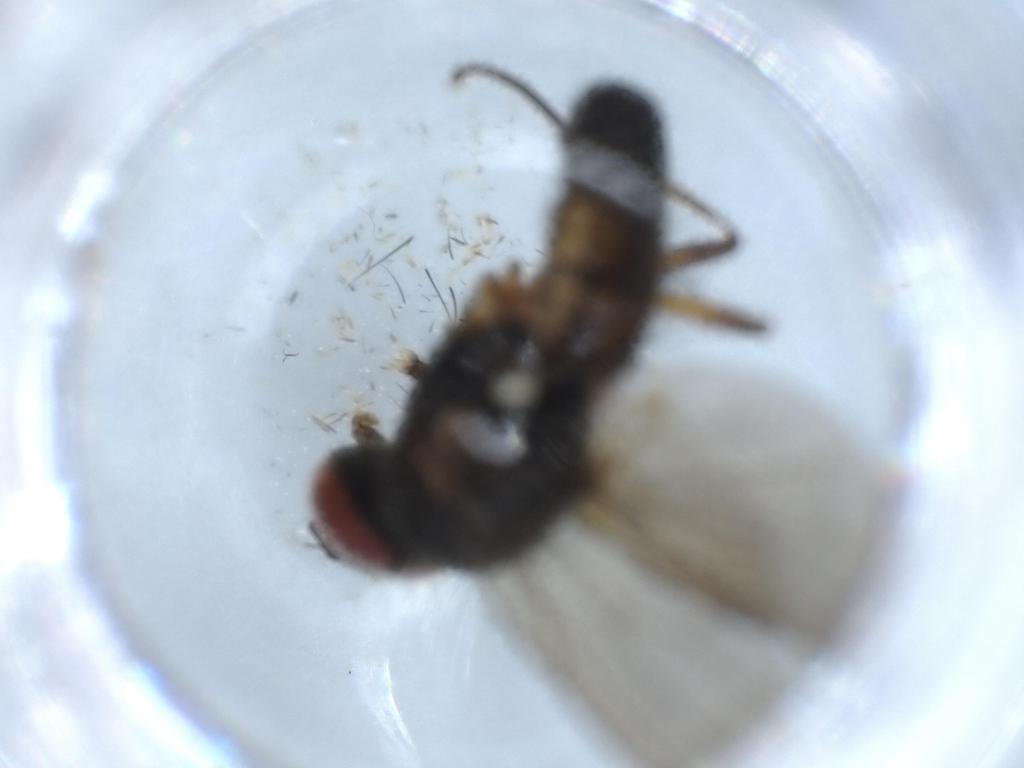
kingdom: Animalia
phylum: Arthropoda
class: Insecta
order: Diptera
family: Anthomyiidae
